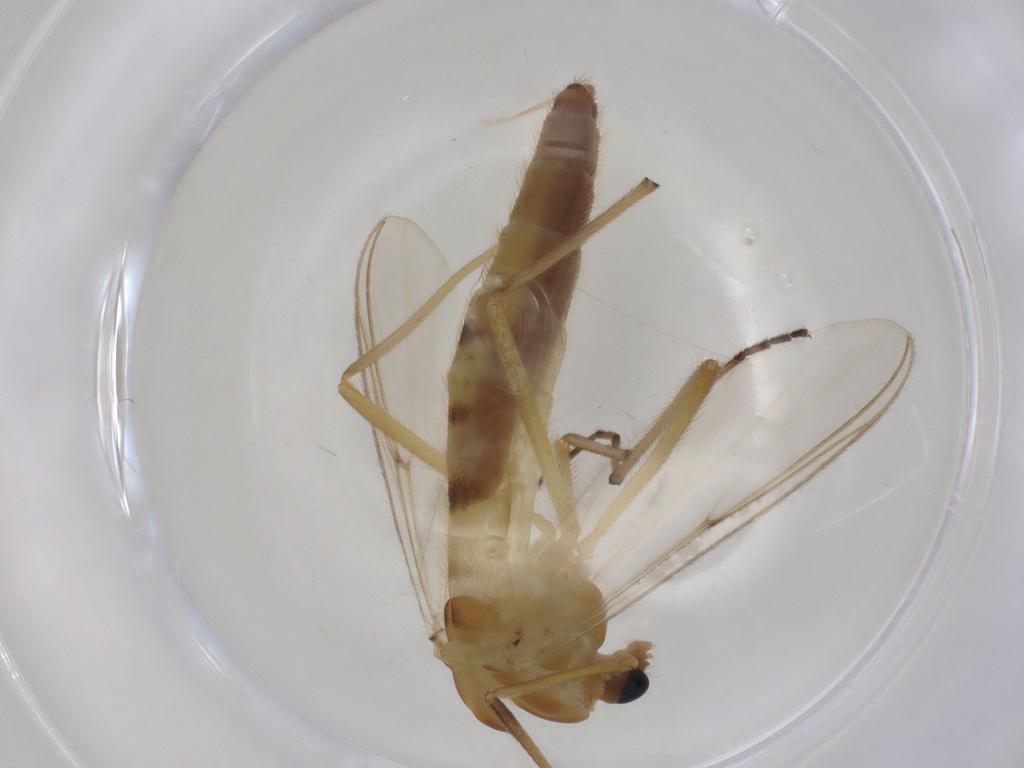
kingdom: Animalia
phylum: Arthropoda
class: Insecta
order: Diptera
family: Chironomidae
